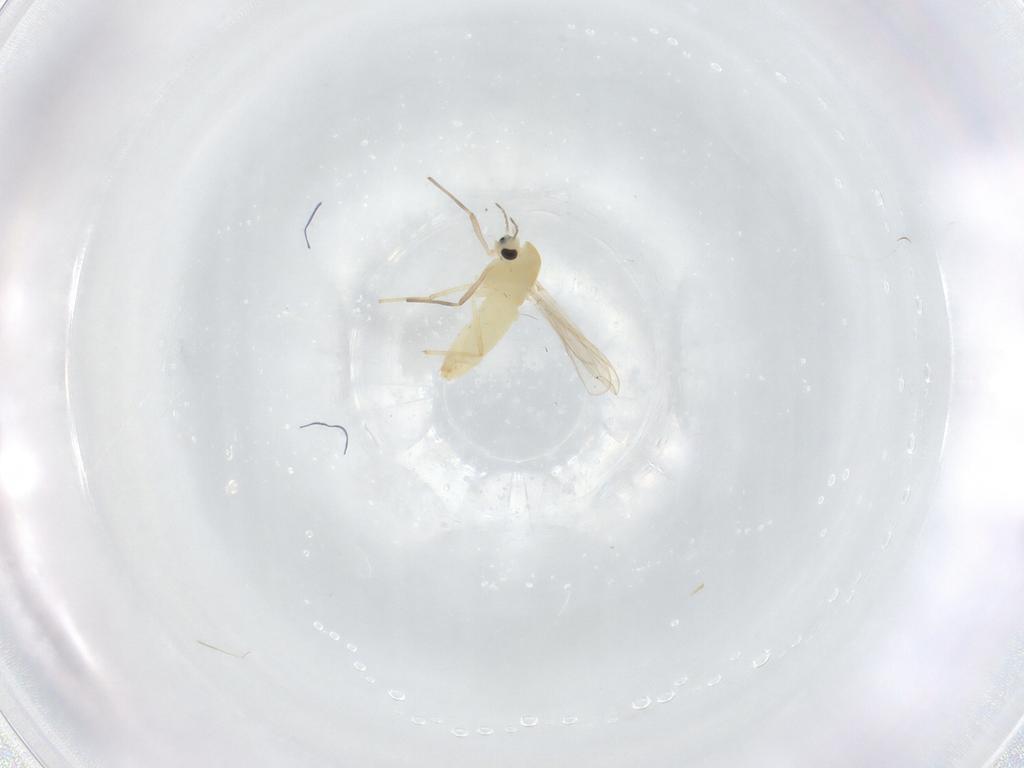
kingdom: Animalia
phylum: Arthropoda
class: Insecta
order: Diptera
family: Chironomidae
